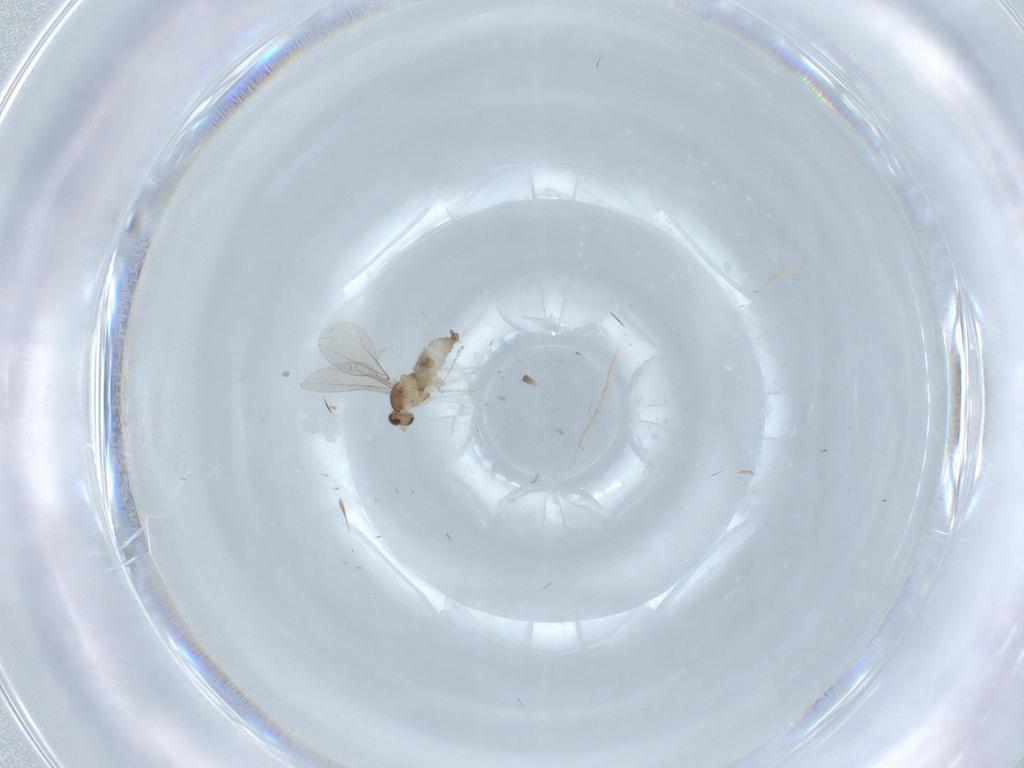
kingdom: Animalia
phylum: Arthropoda
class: Insecta
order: Diptera
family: Cecidomyiidae
